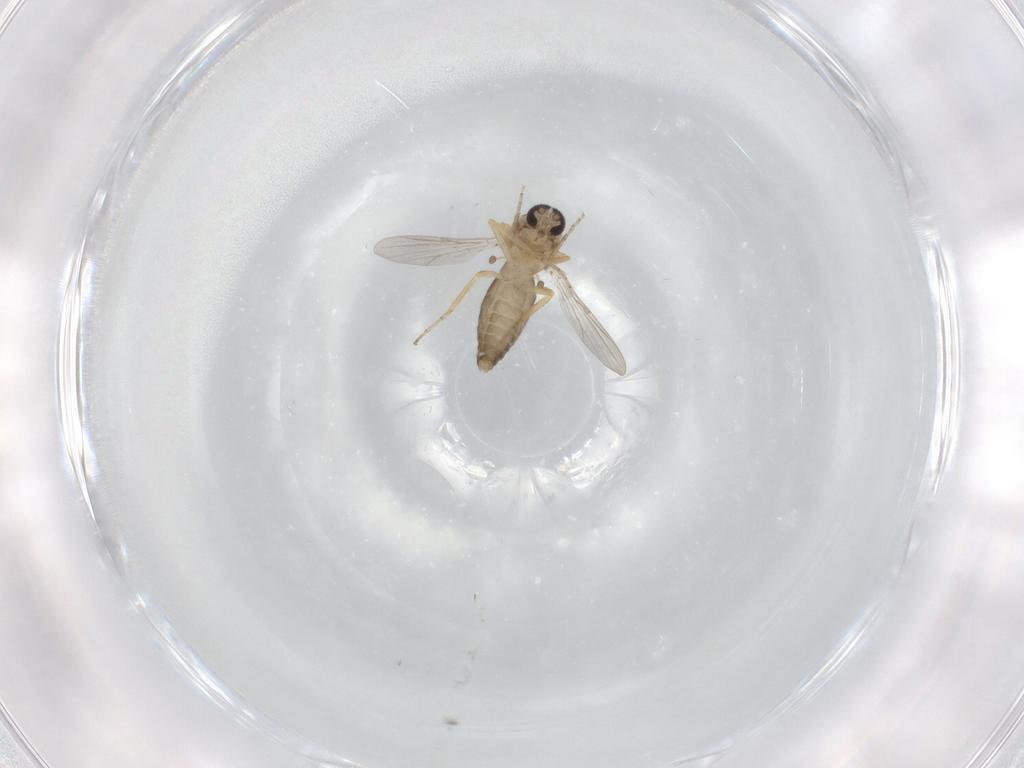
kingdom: Animalia
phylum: Arthropoda
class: Insecta
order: Diptera
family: Ceratopogonidae
